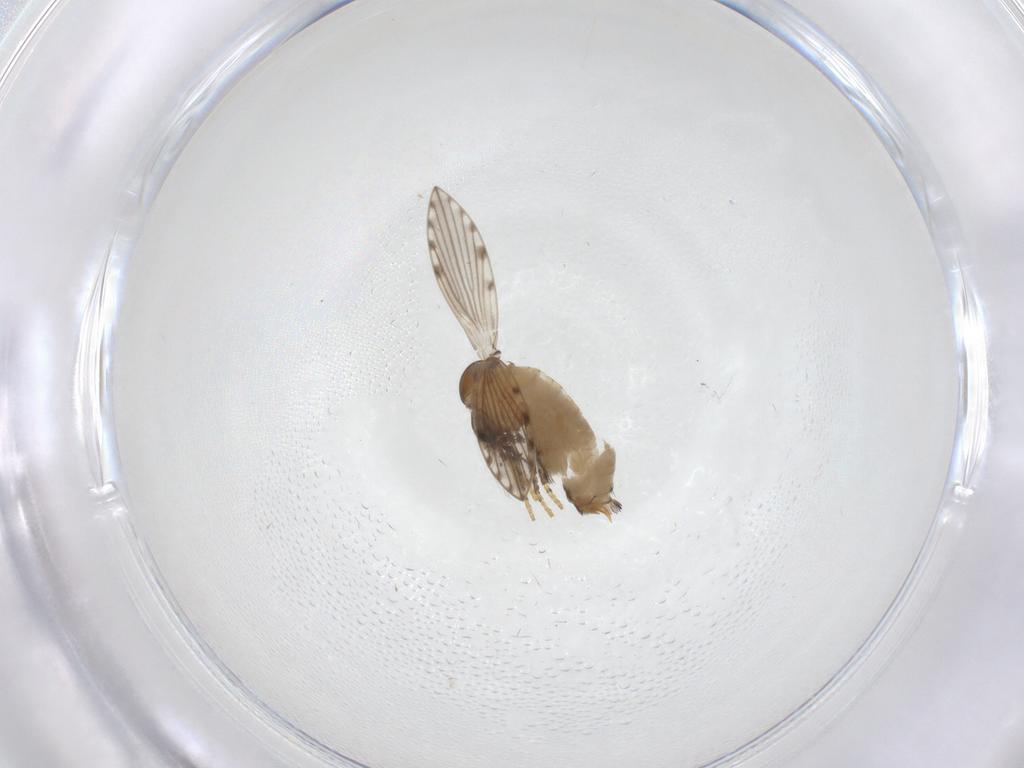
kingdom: Animalia
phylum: Arthropoda
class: Insecta
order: Diptera
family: Psychodidae
